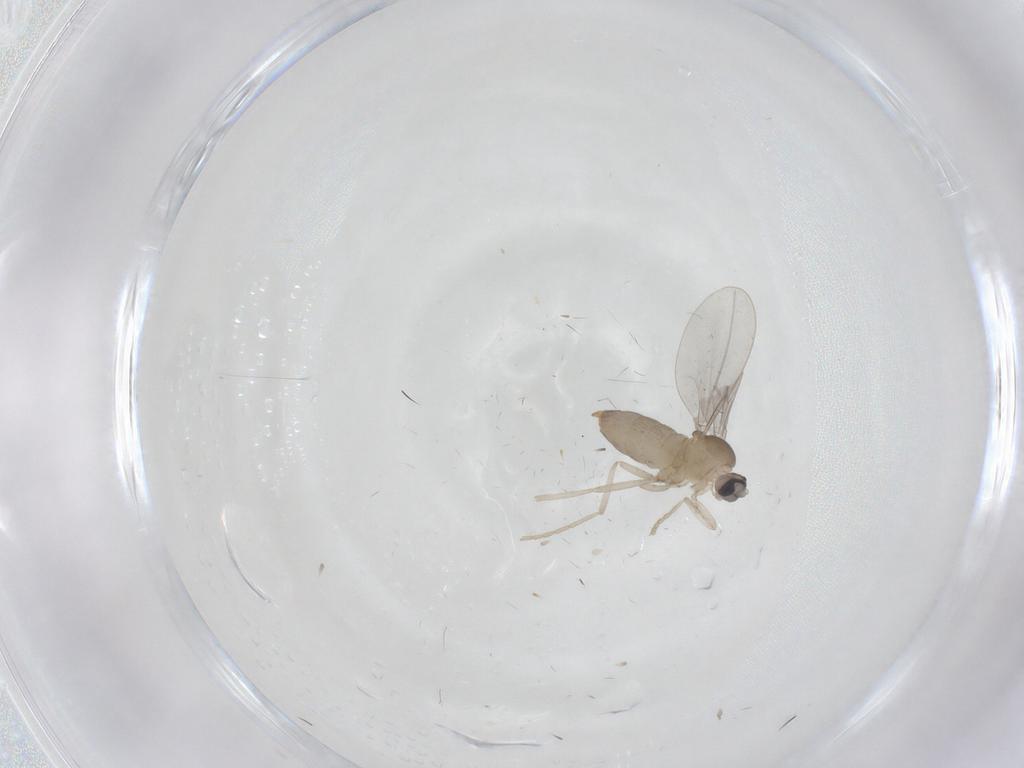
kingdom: Animalia
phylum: Arthropoda
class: Insecta
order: Diptera
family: Cecidomyiidae
